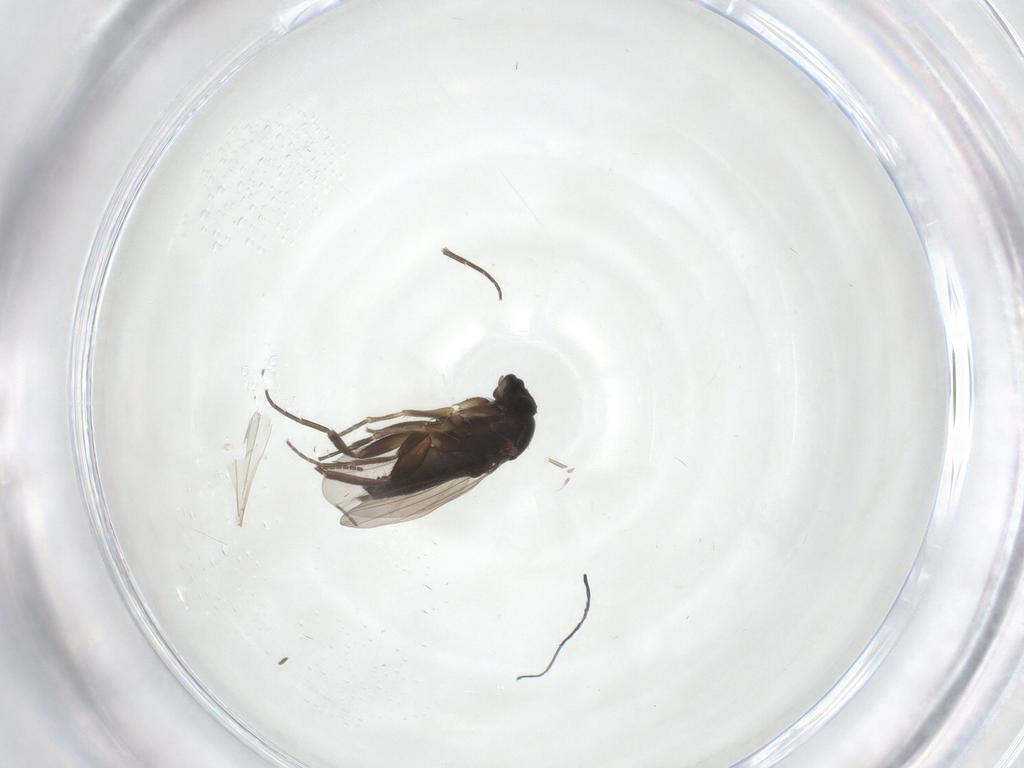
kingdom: Animalia
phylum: Arthropoda
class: Insecta
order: Diptera
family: Phoridae
